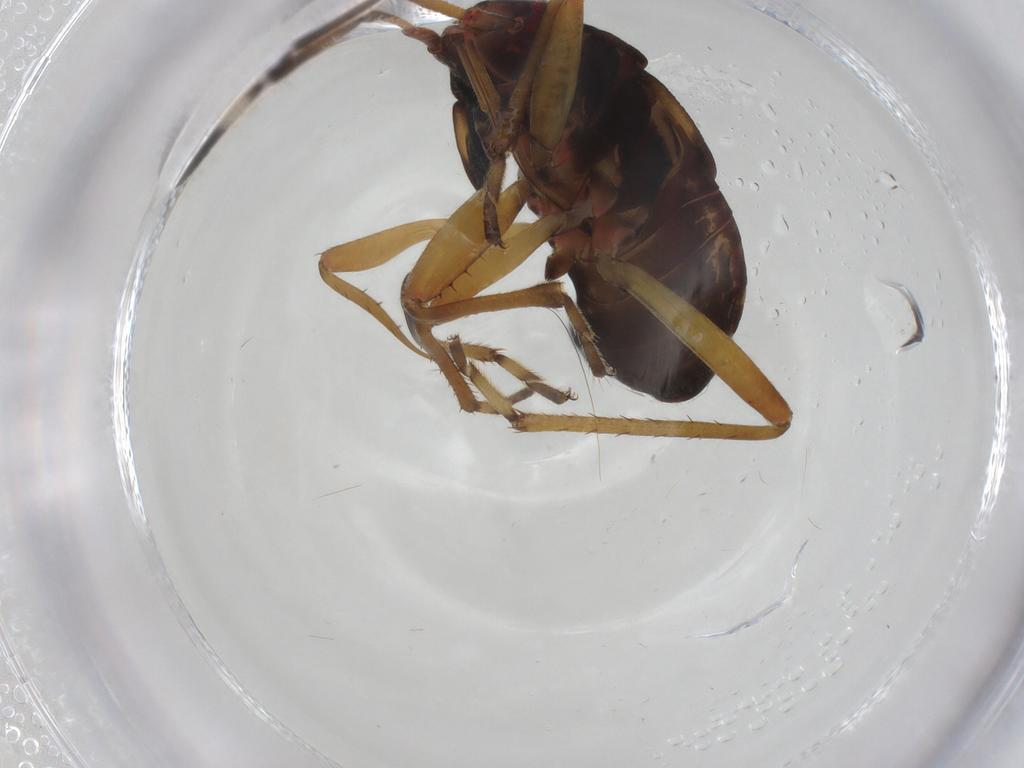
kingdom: Animalia
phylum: Arthropoda
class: Insecta
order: Hemiptera
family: Rhyparochromidae
